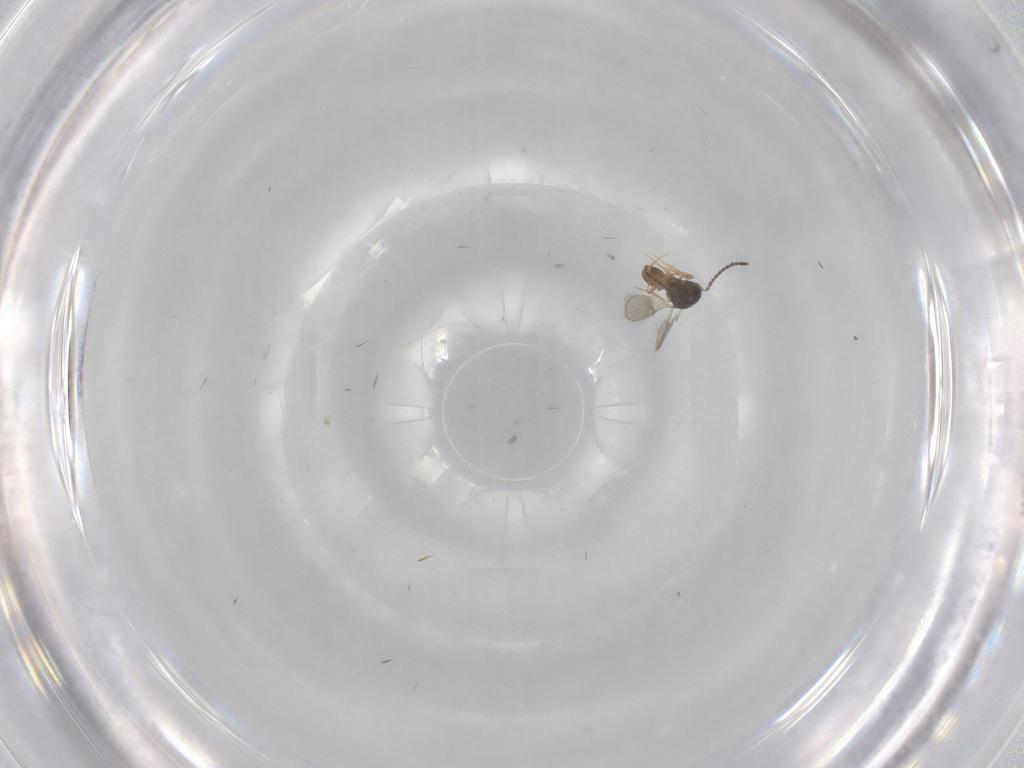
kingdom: Animalia
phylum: Arthropoda
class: Insecta
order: Hymenoptera
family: Scelionidae
